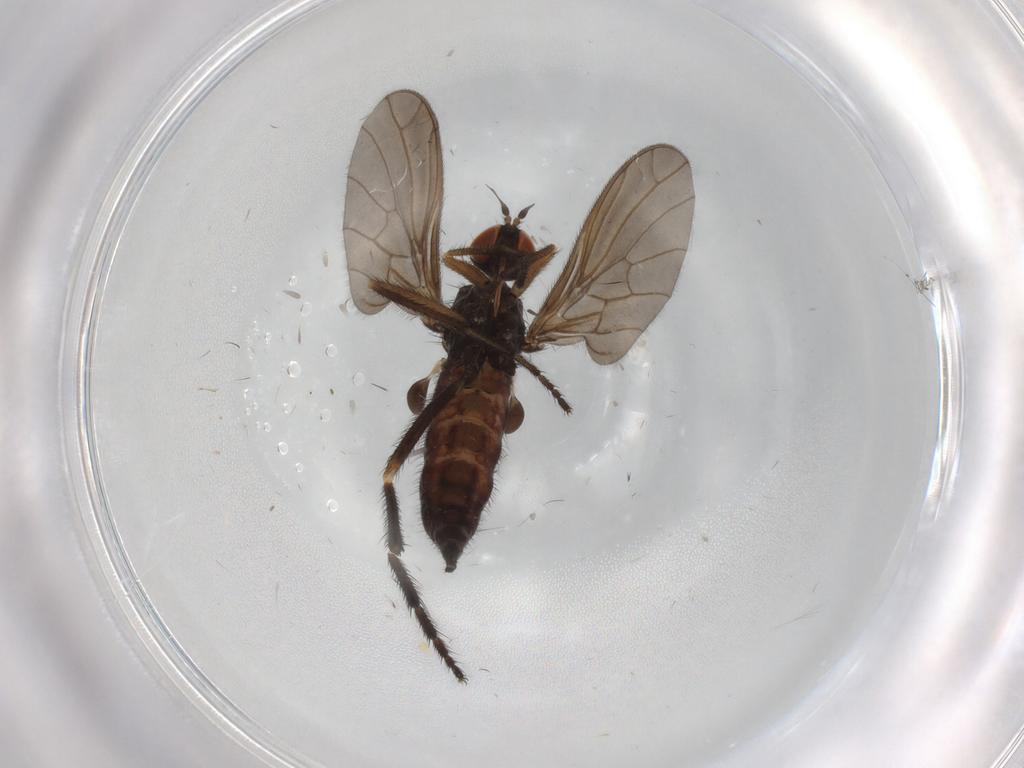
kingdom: Animalia
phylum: Arthropoda
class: Insecta
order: Diptera
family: Empididae
